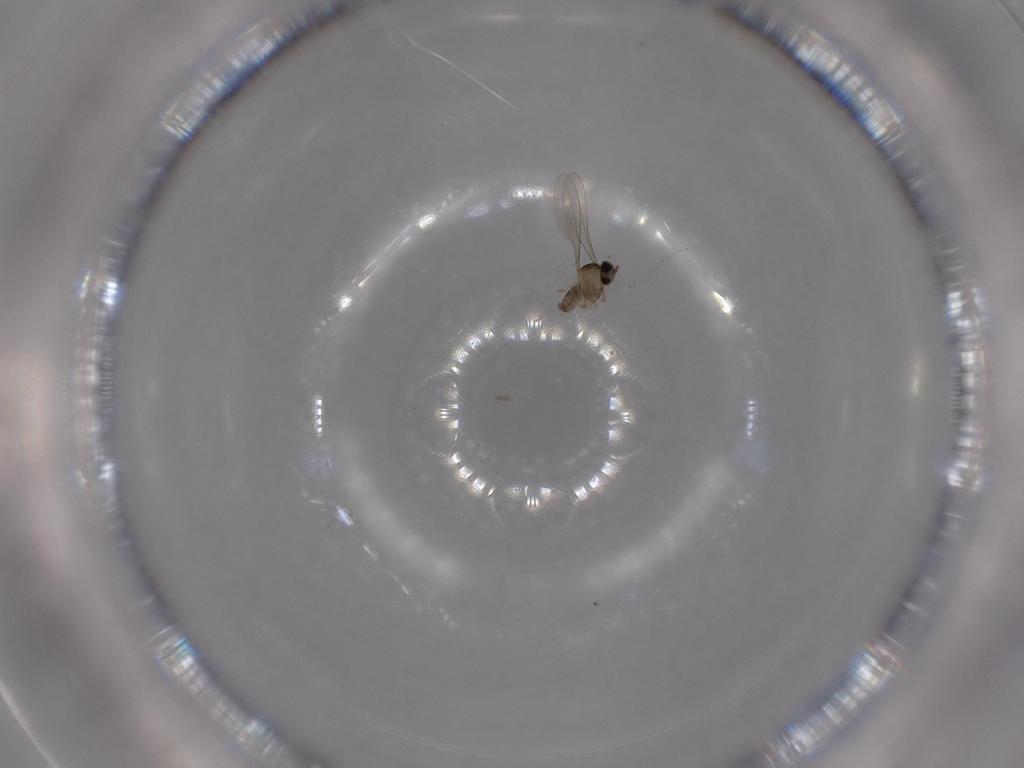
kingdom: Animalia
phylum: Arthropoda
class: Insecta
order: Diptera
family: Cecidomyiidae
